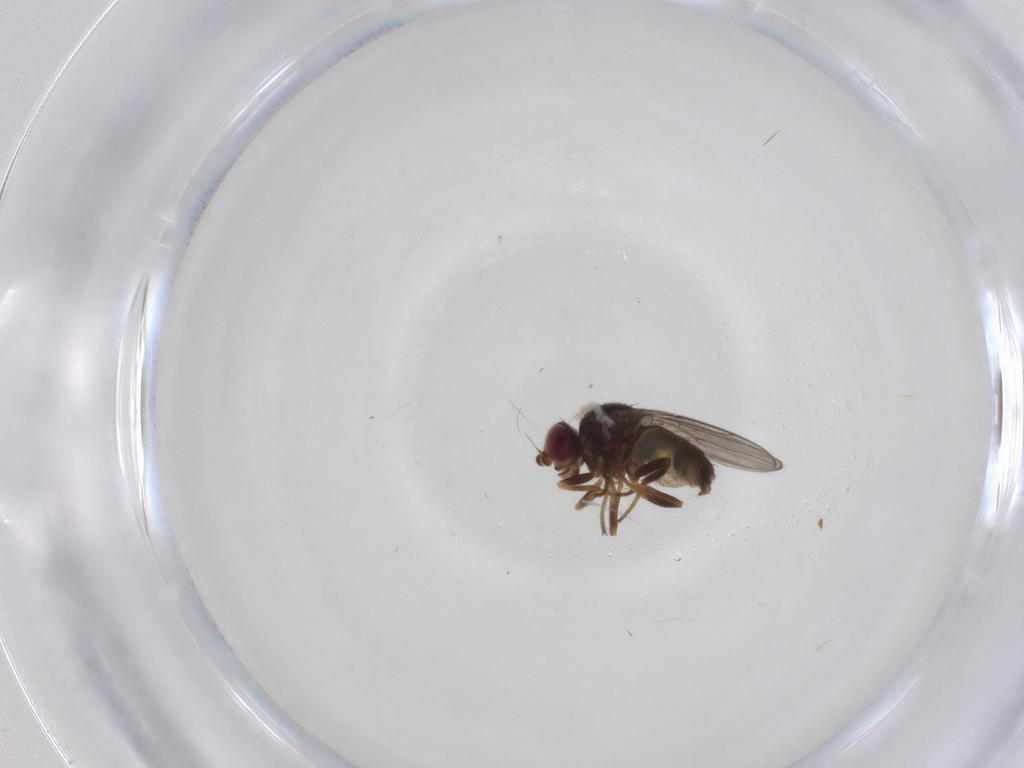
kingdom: Animalia
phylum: Arthropoda
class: Insecta
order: Diptera
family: Chloropidae
